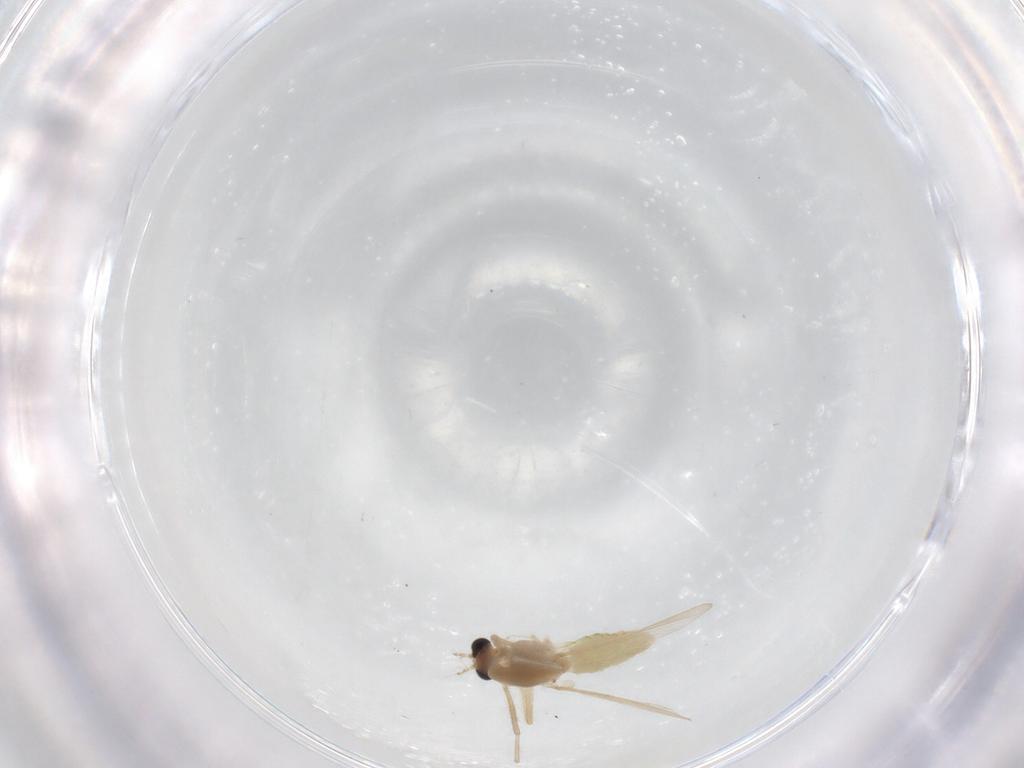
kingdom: Animalia
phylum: Arthropoda
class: Insecta
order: Diptera
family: Chironomidae
